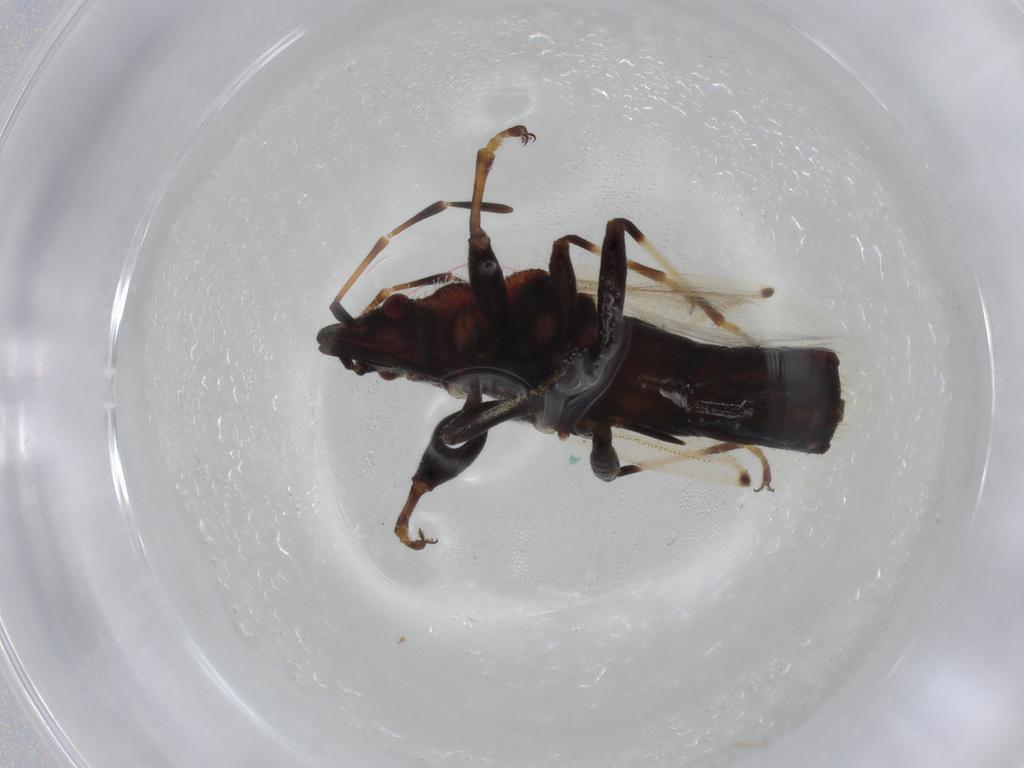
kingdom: Animalia
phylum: Arthropoda
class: Insecta
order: Hemiptera
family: Oxycarenidae
